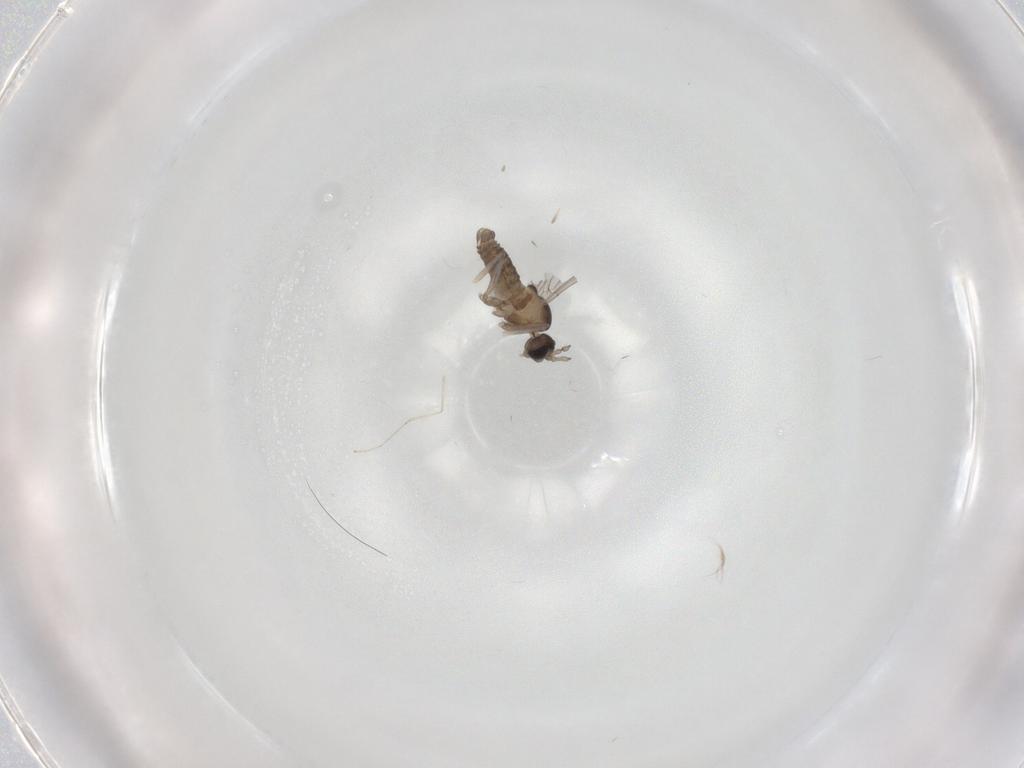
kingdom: Animalia
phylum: Arthropoda
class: Insecta
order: Diptera
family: Cecidomyiidae
